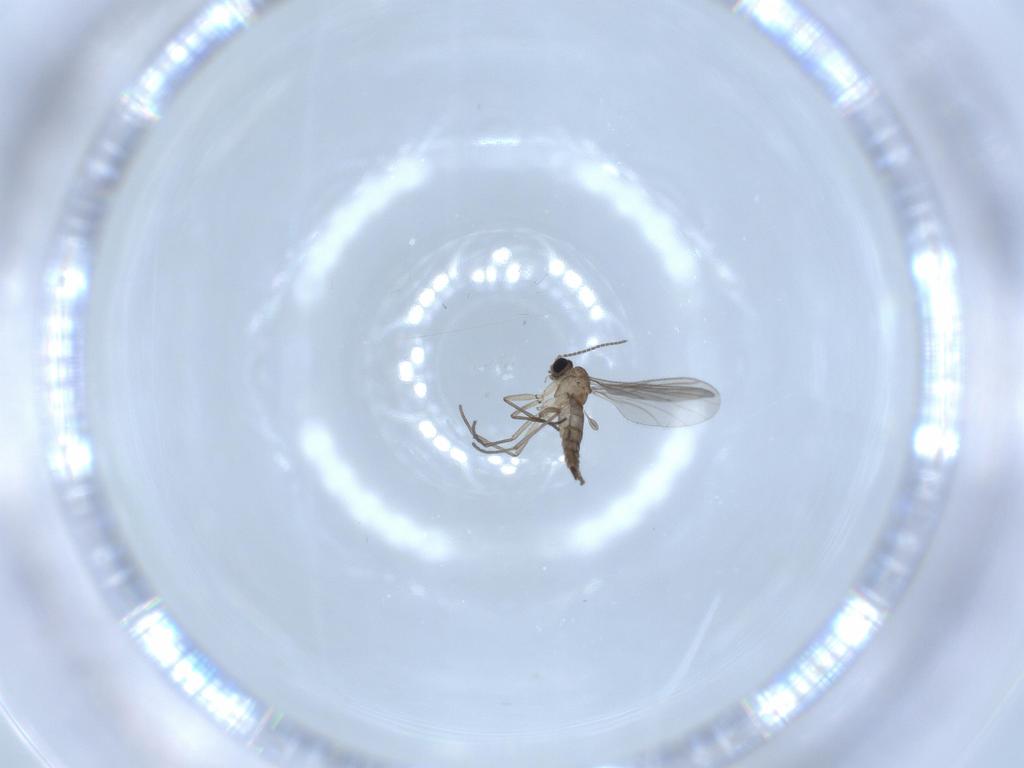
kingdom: Animalia
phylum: Arthropoda
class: Insecta
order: Diptera
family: Sciaridae
